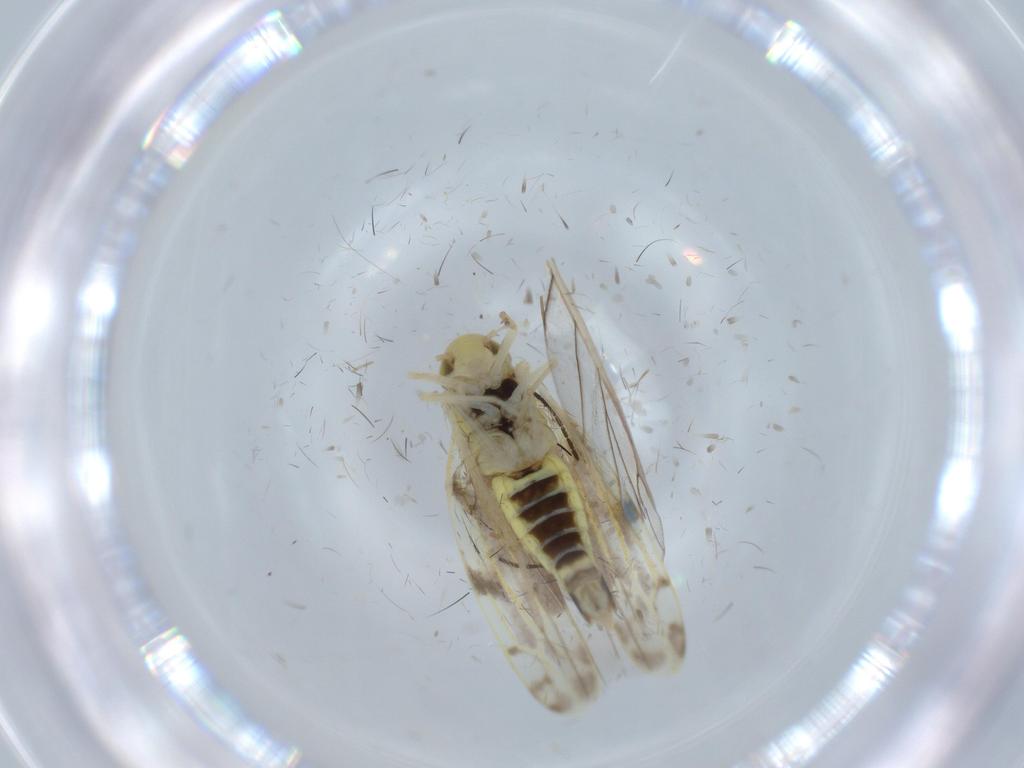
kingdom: Animalia
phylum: Arthropoda
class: Insecta
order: Hemiptera
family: Cicadellidae
